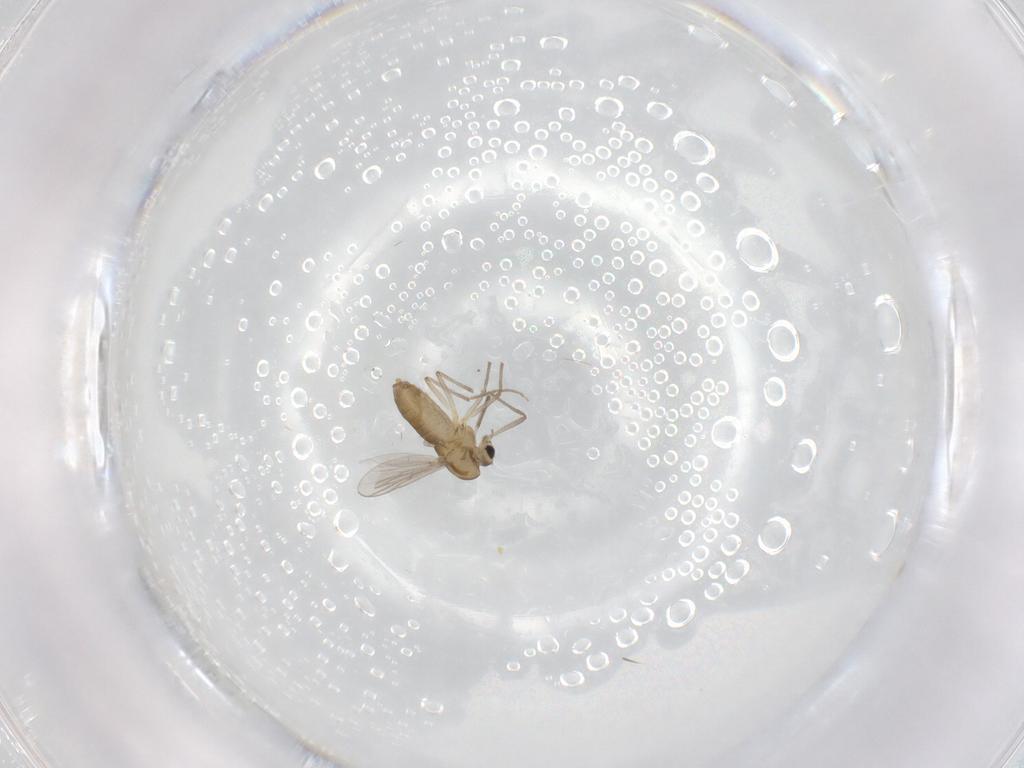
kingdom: Animalia
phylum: Arthropoda
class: Insecta
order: Diptera
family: Chironomidae
